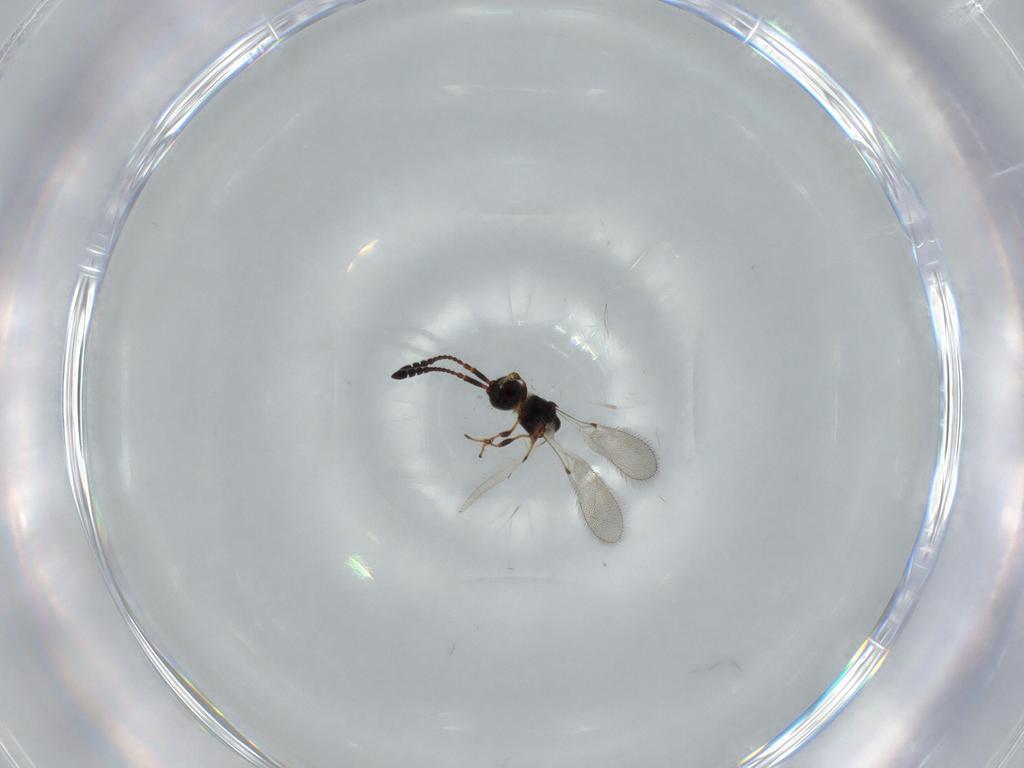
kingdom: Animalia
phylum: Arthropoda
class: Insecta
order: Hymenoptera
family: Diapriidae
